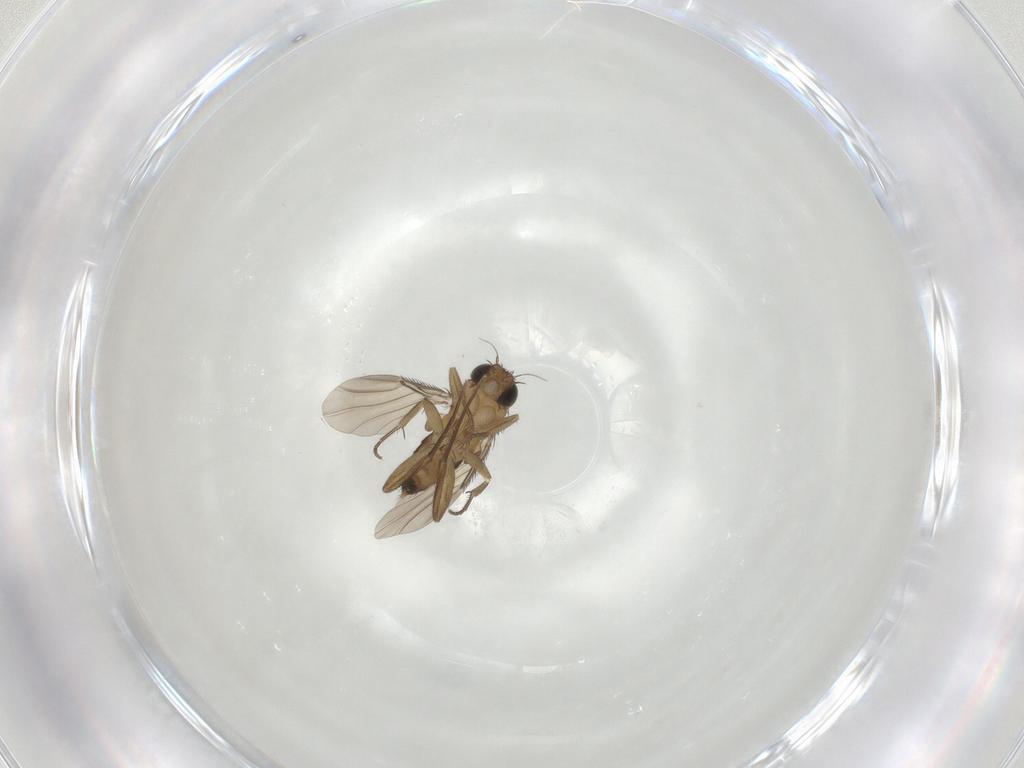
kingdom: Animalia
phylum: Arthropoda
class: Insecta
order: Diptera
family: Phoridae
